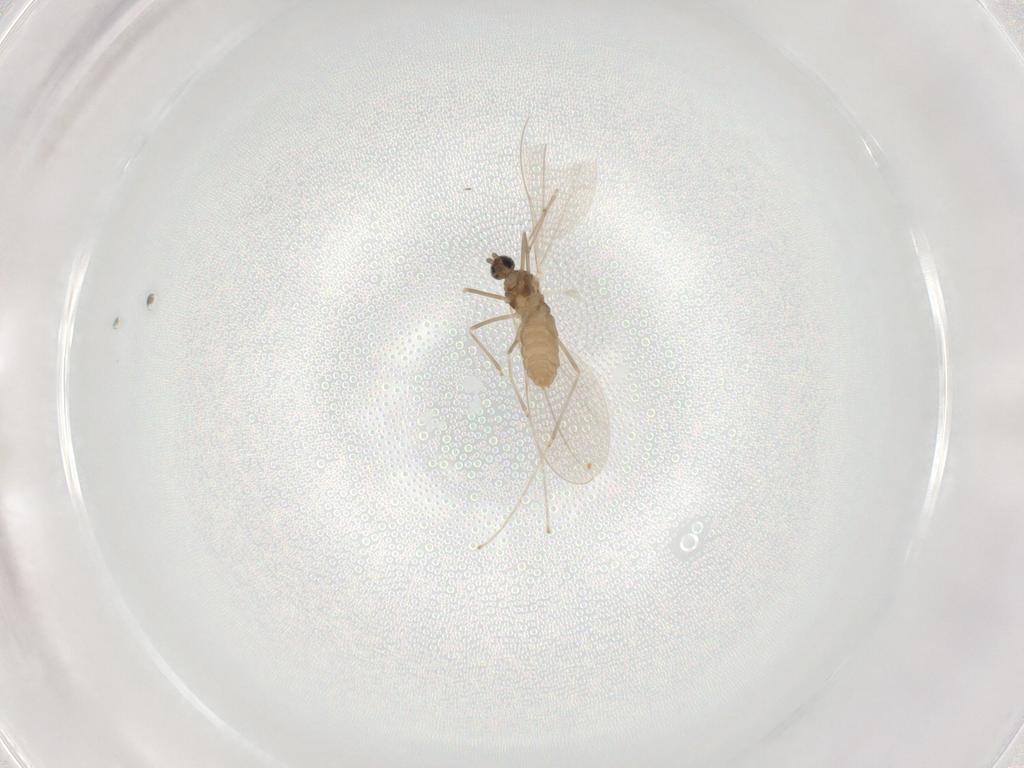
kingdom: Animalia
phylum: Arthropoda
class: Insecta
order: Diptera
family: Cecidomyiidae
